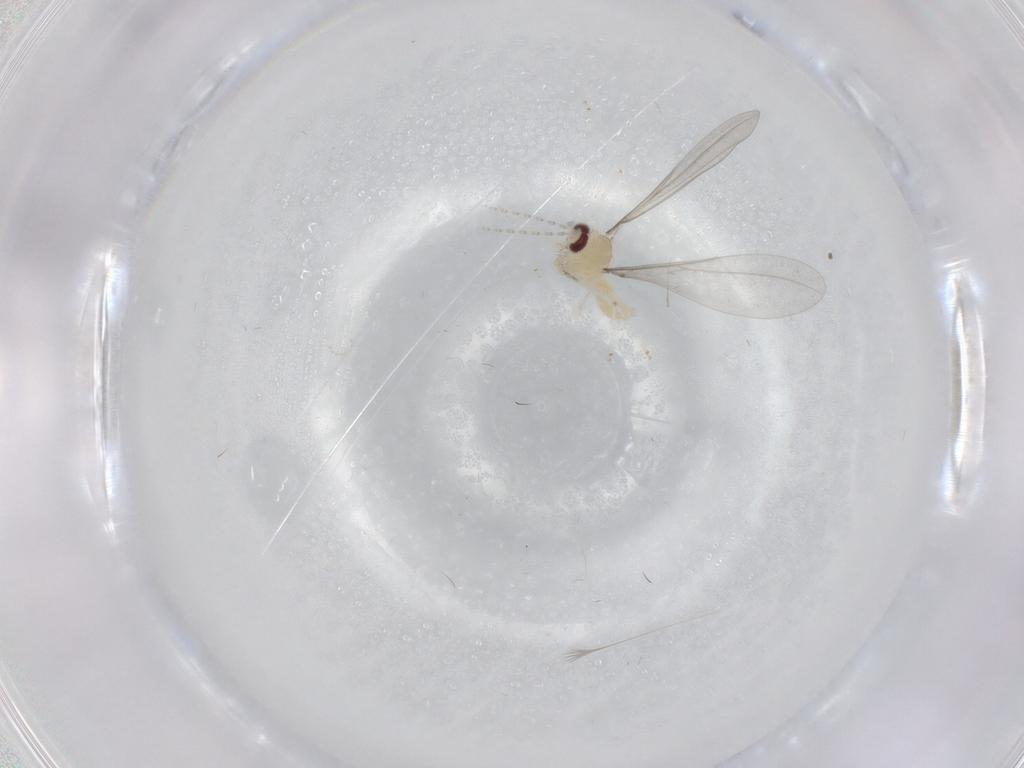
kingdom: Animalia
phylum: Arthropoda
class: Insecta
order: Diptera
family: Cecidomyiidae
